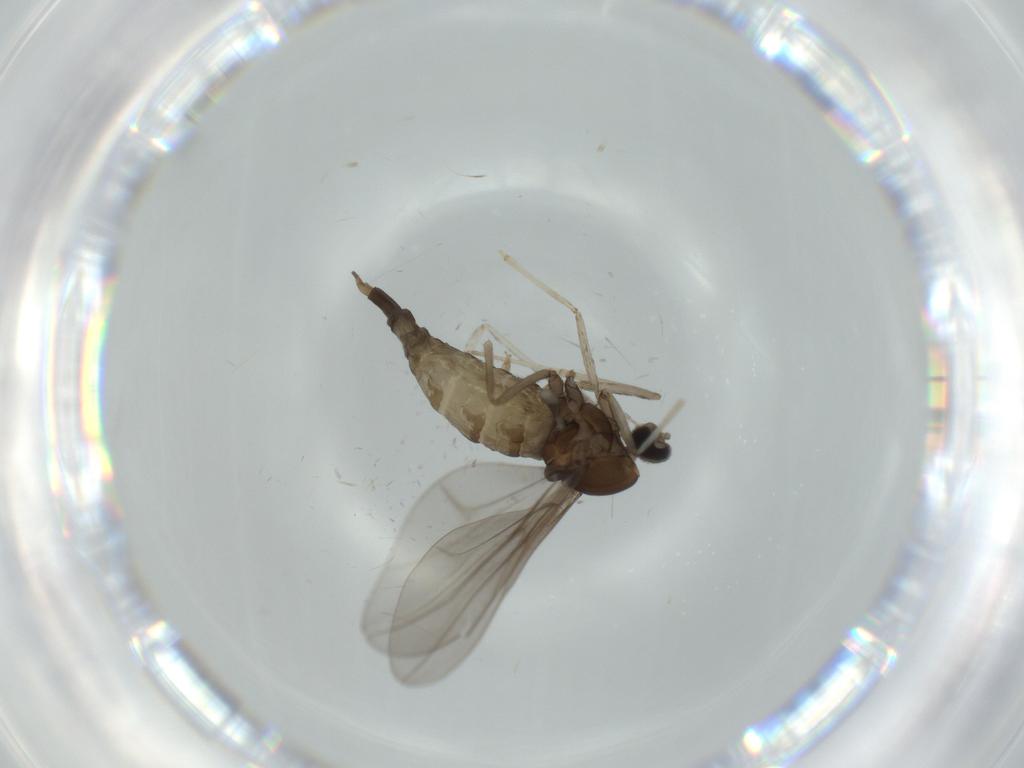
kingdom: Animalia
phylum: Arthropoda
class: Insecta
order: Diptera
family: Cecidomyiidae
